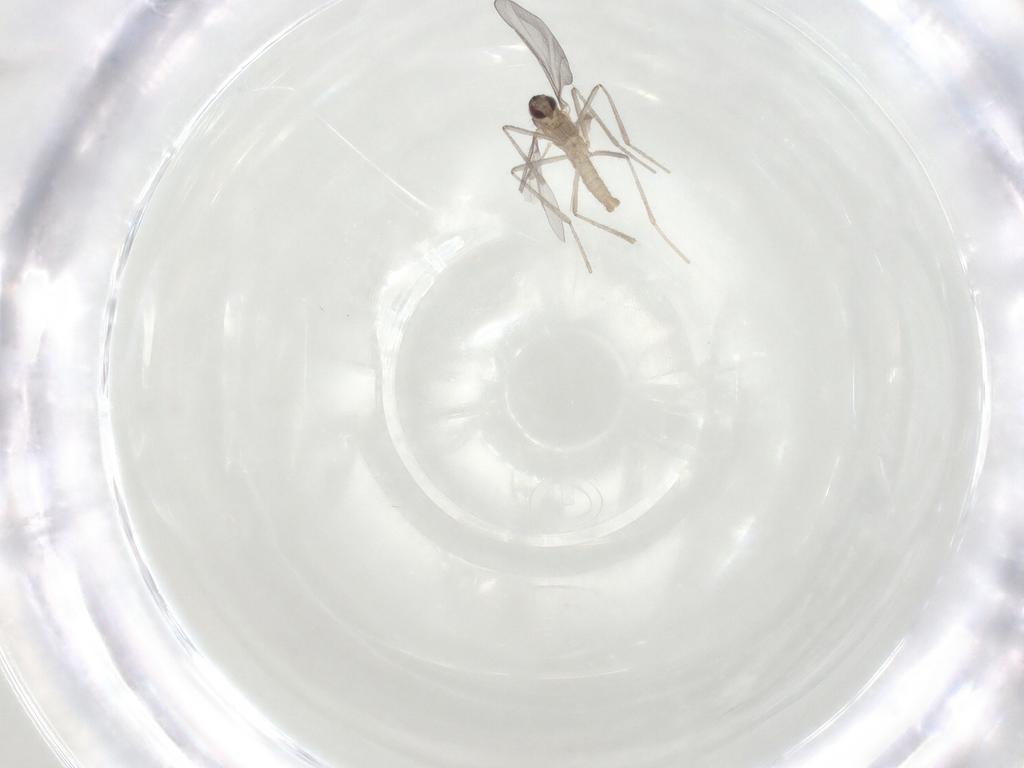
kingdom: Animalia
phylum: Arthropoda
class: Insecta
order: Diptera
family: Cecidomyiidae
